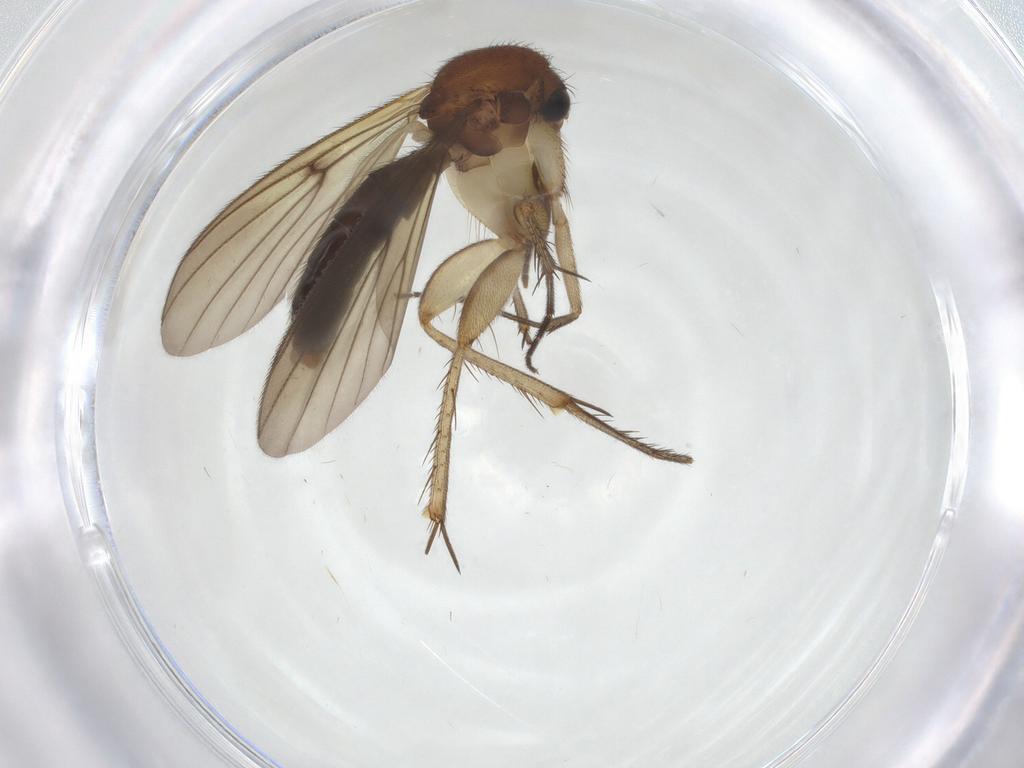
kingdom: Animalia
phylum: Arthropoda
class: Insecta
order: Diptera
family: Mycetophilidae
